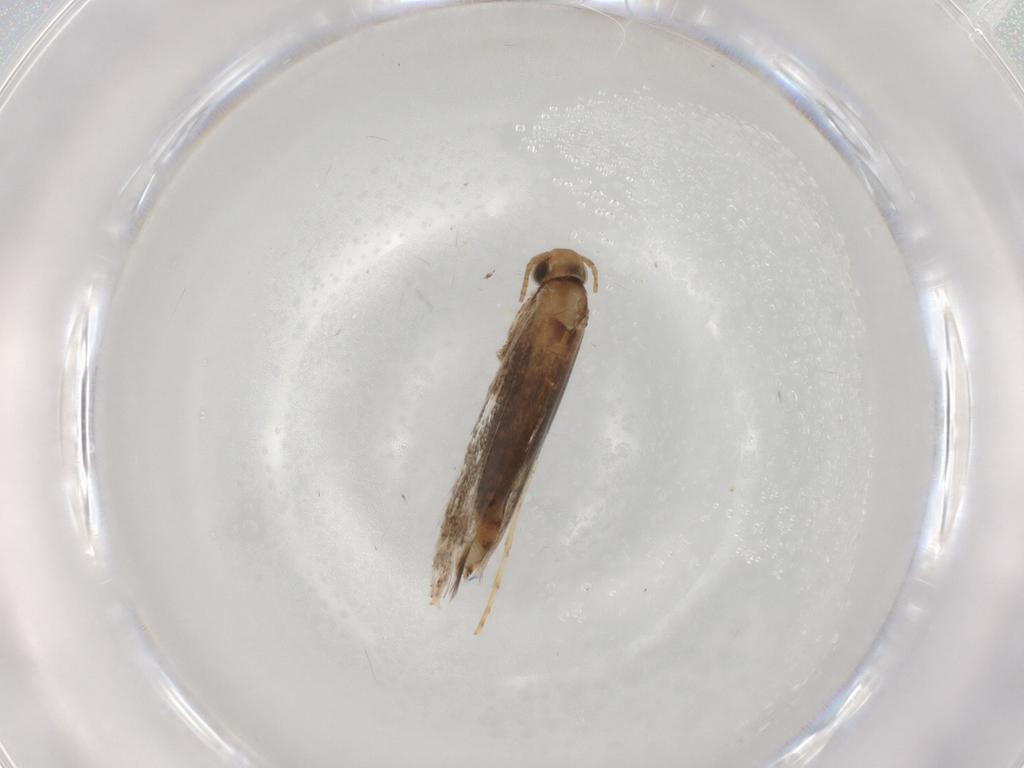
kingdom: Animalia
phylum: Arthropoda
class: Insecta
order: Lepidoptera
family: Gracillariidae
